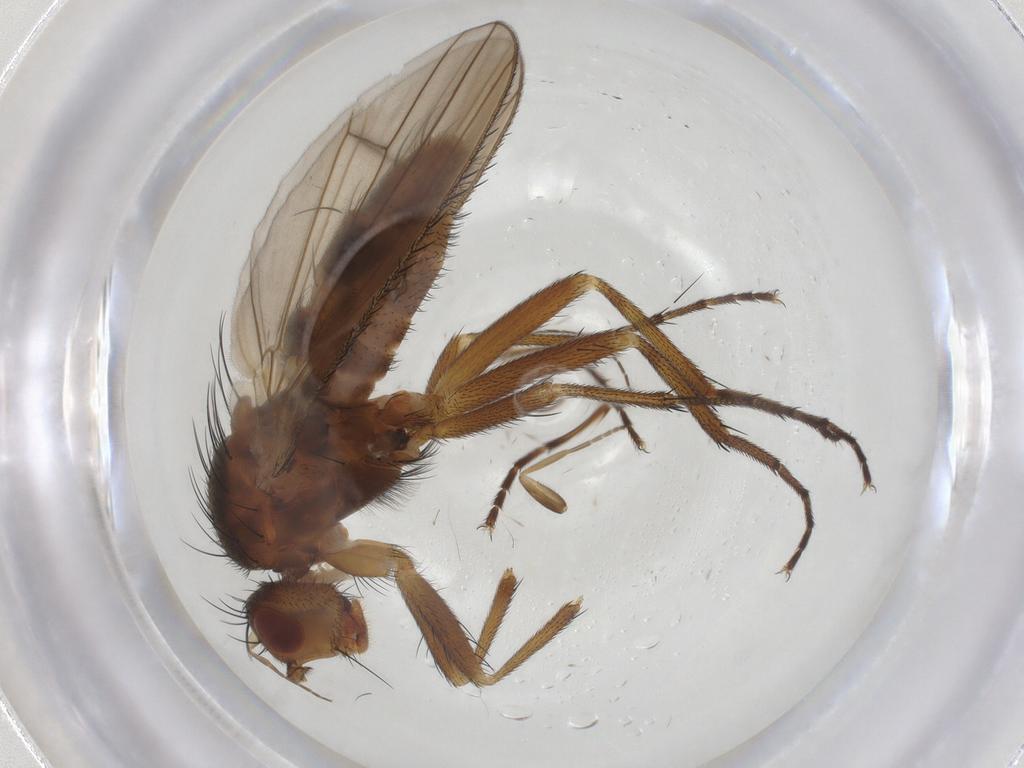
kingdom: Animalia
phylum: Arthropoda
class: Insecta
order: Diptera
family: Heleomyzidae
